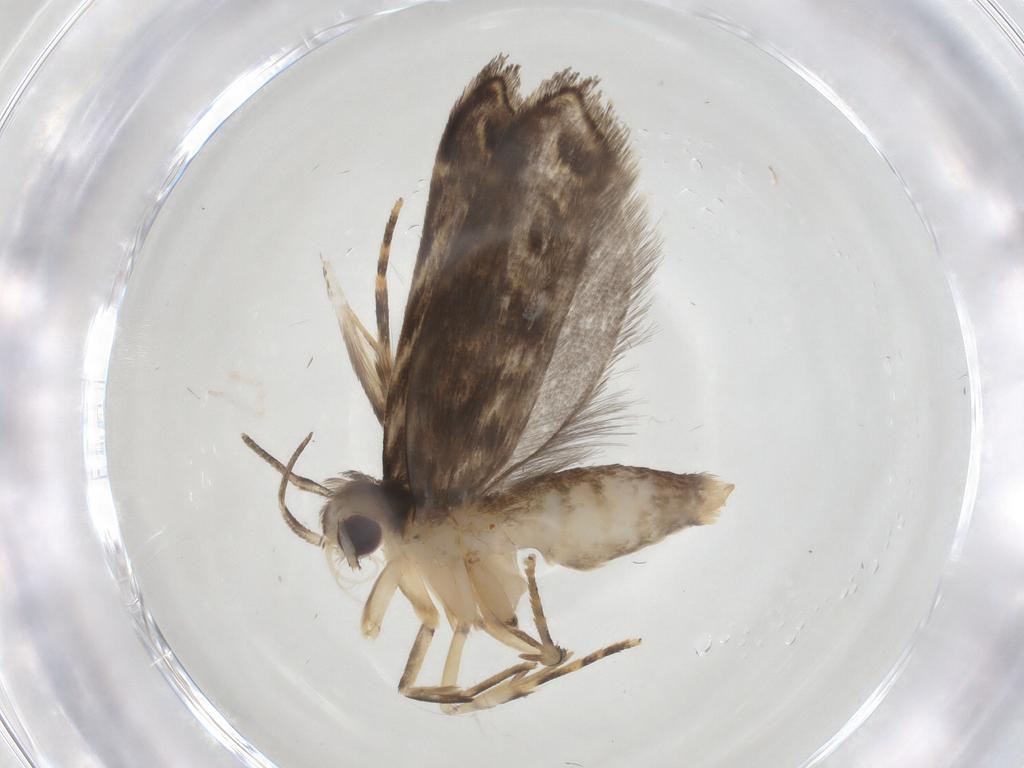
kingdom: Animalia
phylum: Arthropoda
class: Insecta
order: Lepidoptera
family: Gelechiidae
